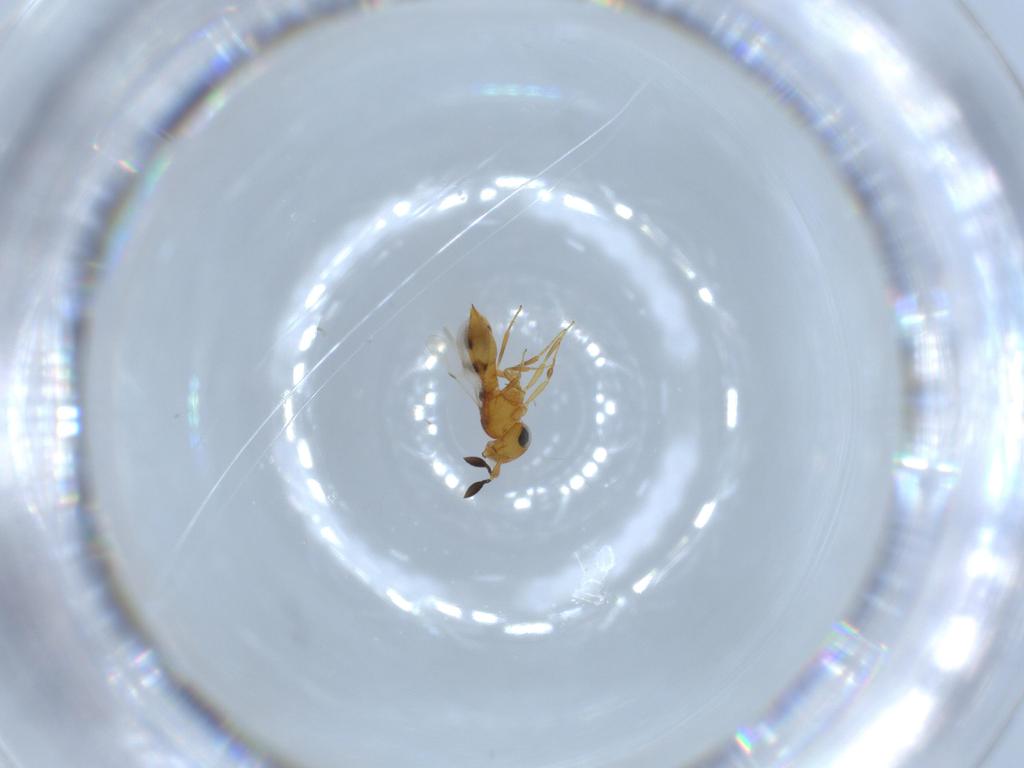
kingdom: Animalia
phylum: Arthropoda
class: Insecta
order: Hymenoptera
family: Scelionidae
